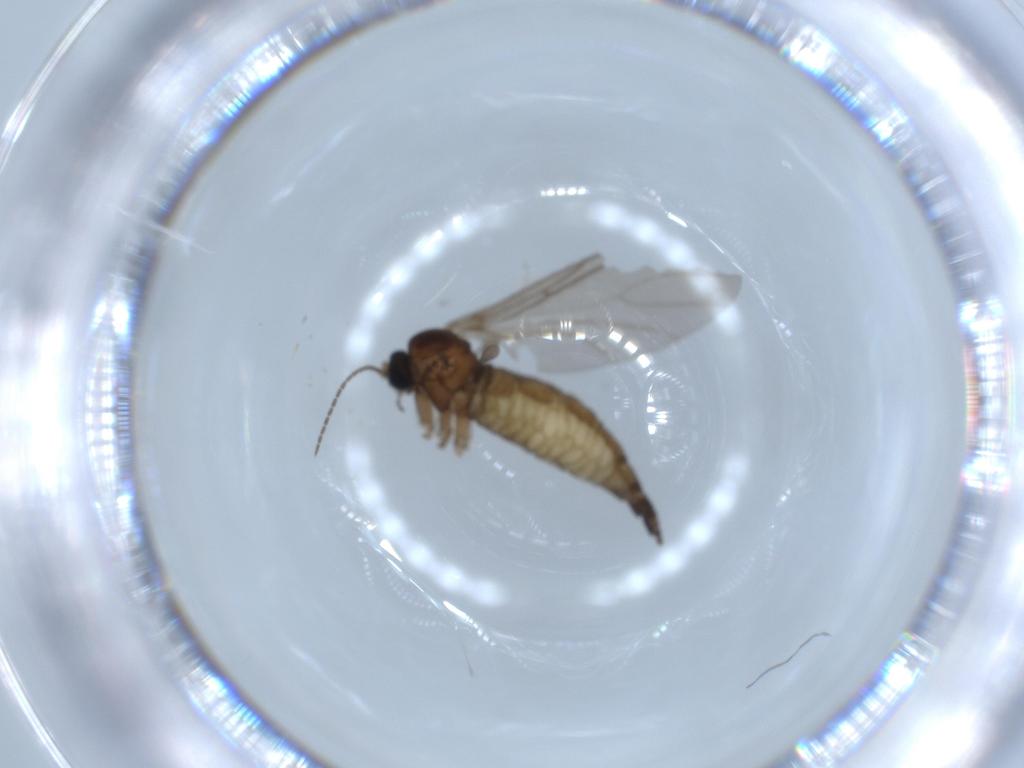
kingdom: Animalia
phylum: Arthropoda
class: Insecta
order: Diptera
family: Sciaridae
